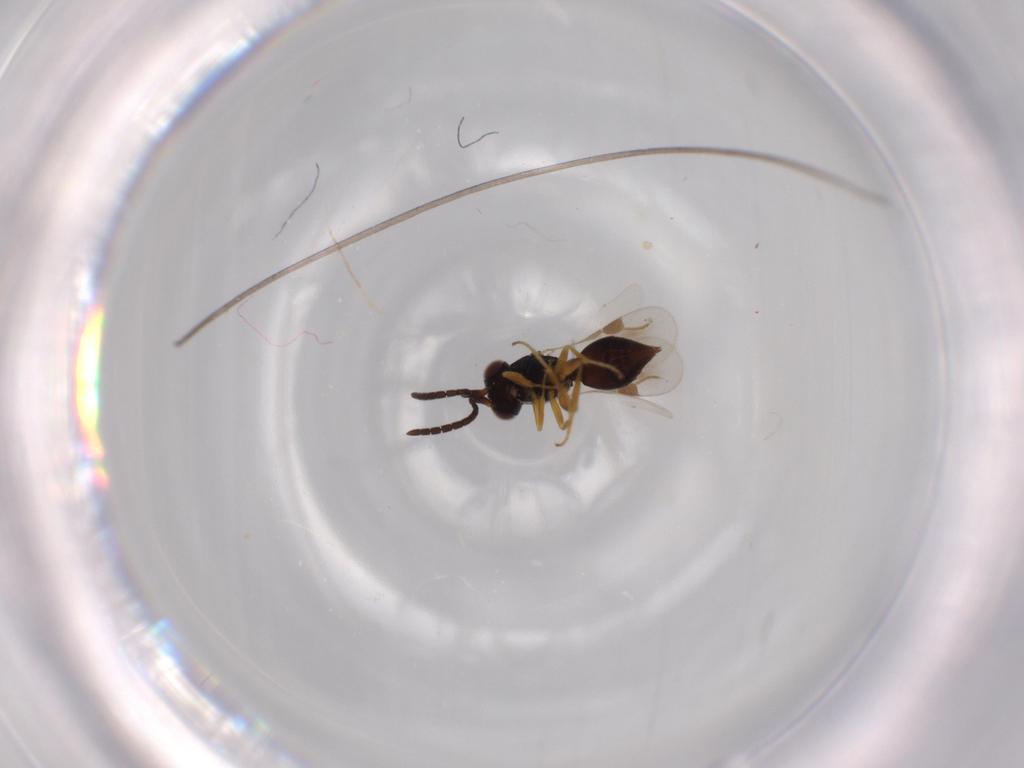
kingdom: Animalia
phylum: Arthropoda
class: Insecta
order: Hymenoptera
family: Megaspilidae
